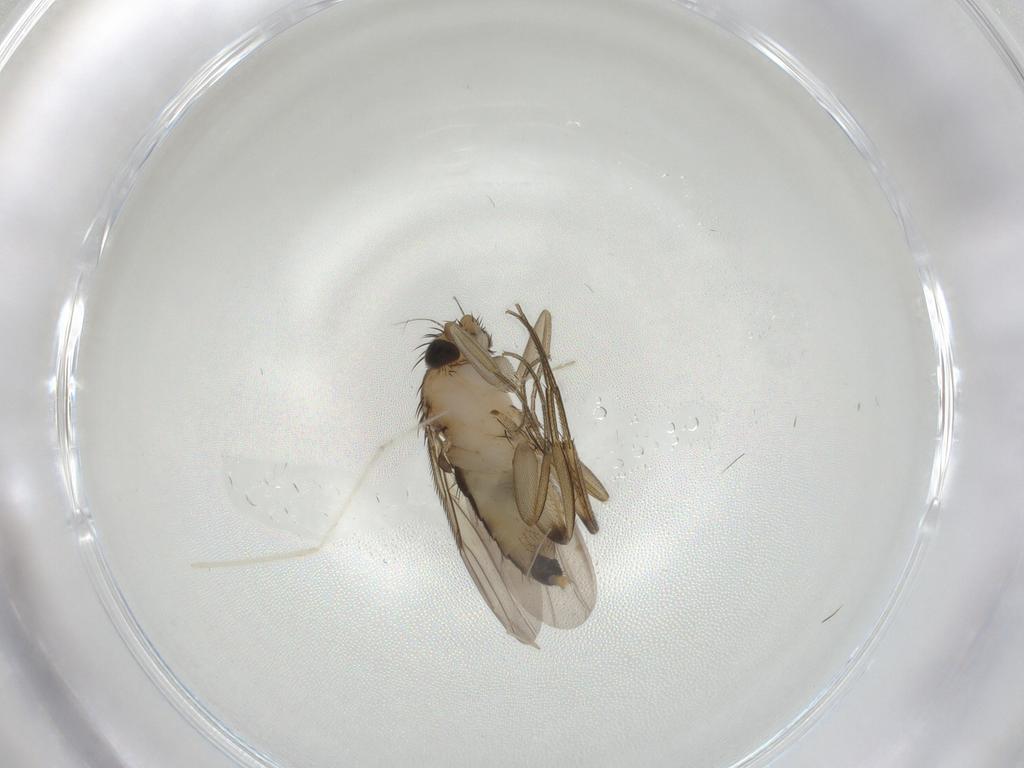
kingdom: Animalia
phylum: Arthropoda
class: Insecta
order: Diptera
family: Phoridae
